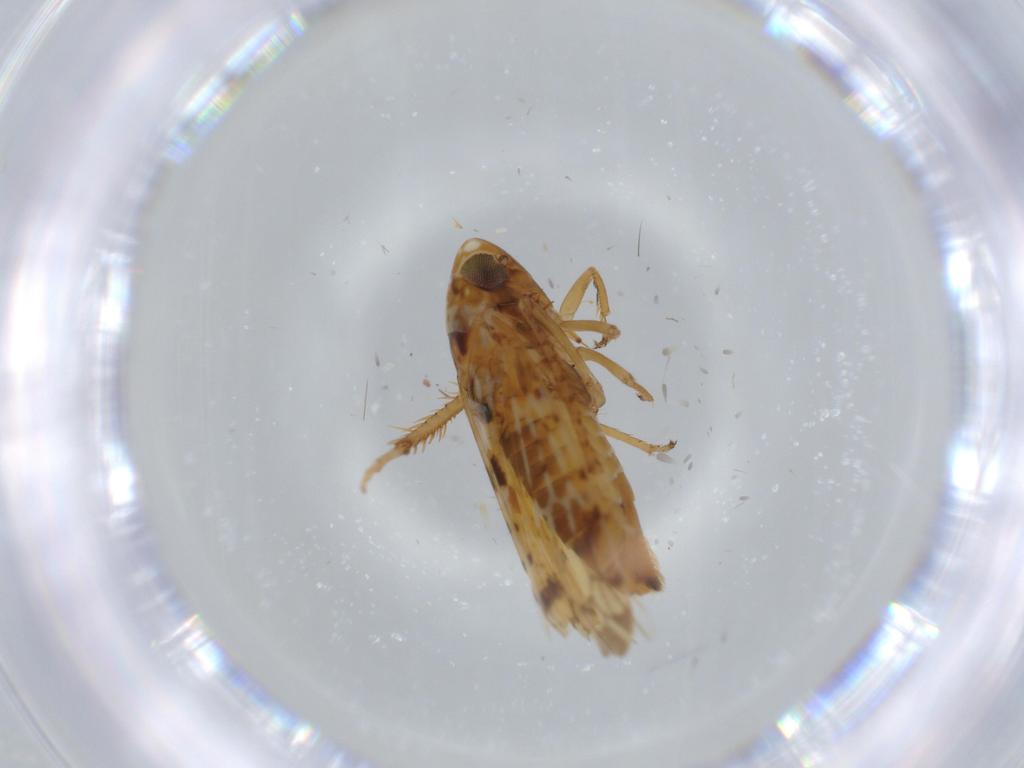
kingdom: Animalia
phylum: Arthropoda
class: Insecta
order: Hemiptera
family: Cicadellidae
